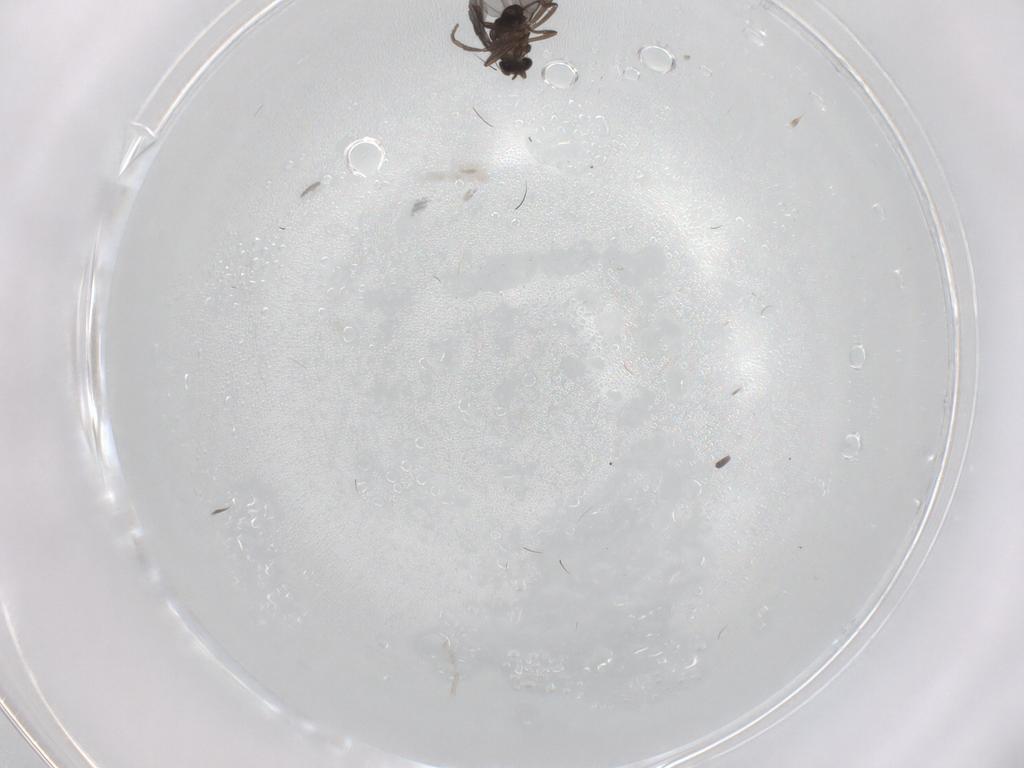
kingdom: Animalia
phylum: Arthropoda
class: Insecta
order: Diptera
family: Phoridae
